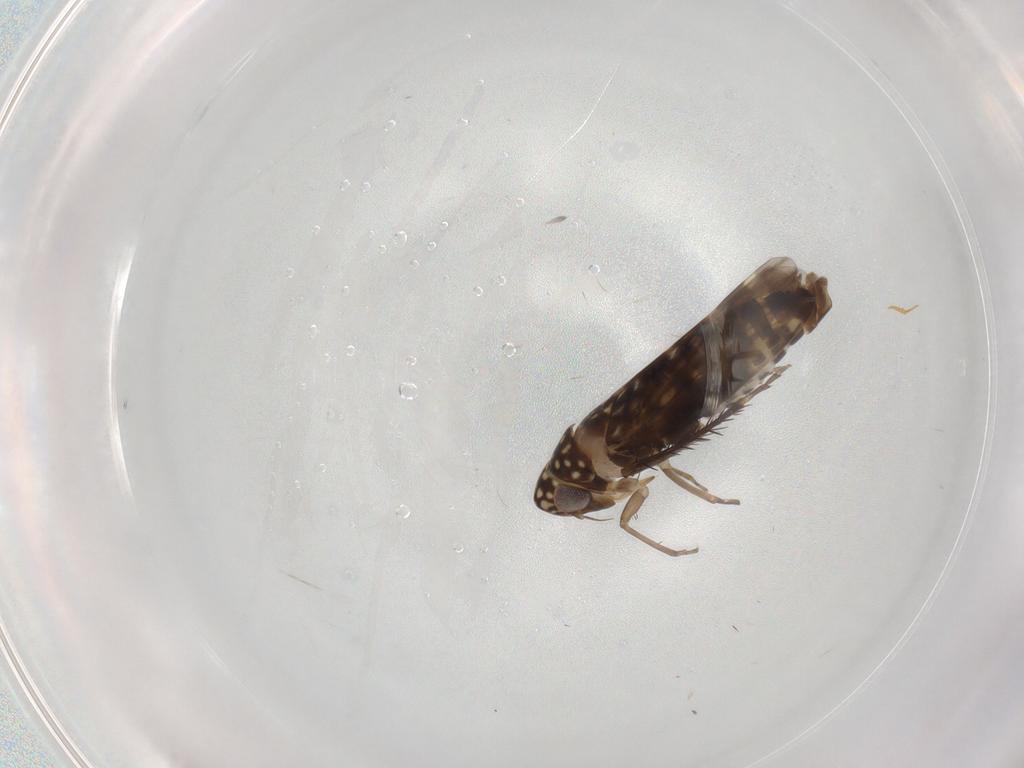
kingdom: Animalia
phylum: Arthropoda
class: Insecta
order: Hemiptera
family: Cicadellidae
